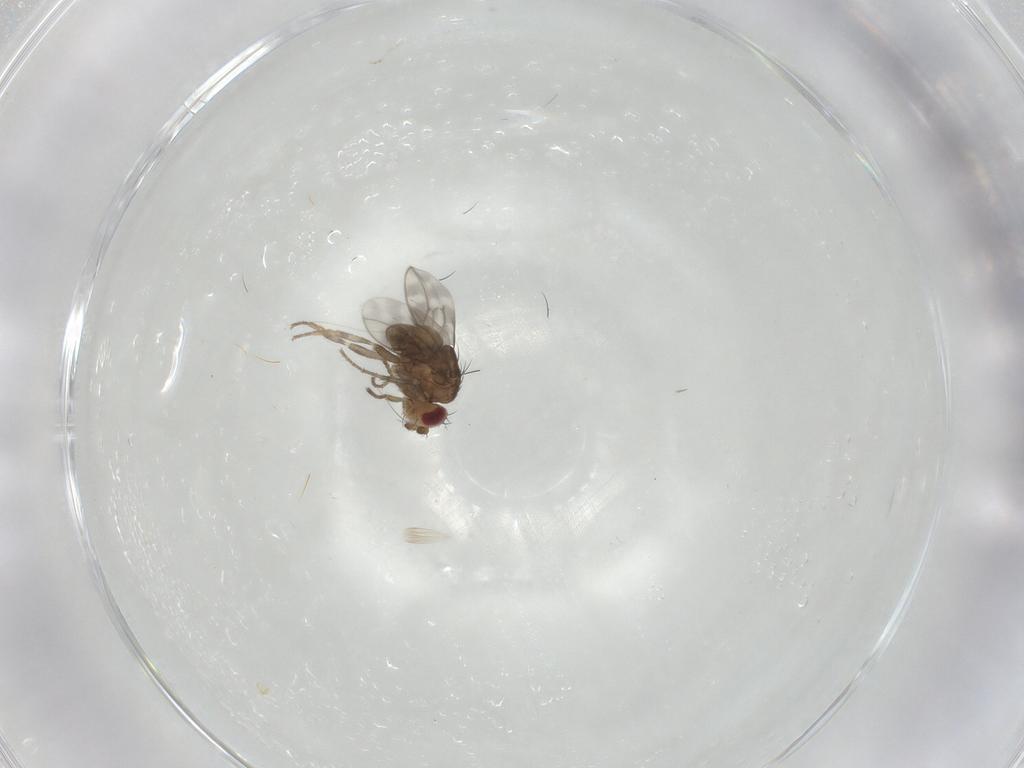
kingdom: Animalia
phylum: Arthropoda
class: Insecta
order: Diptera
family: Sphaeroceridae
